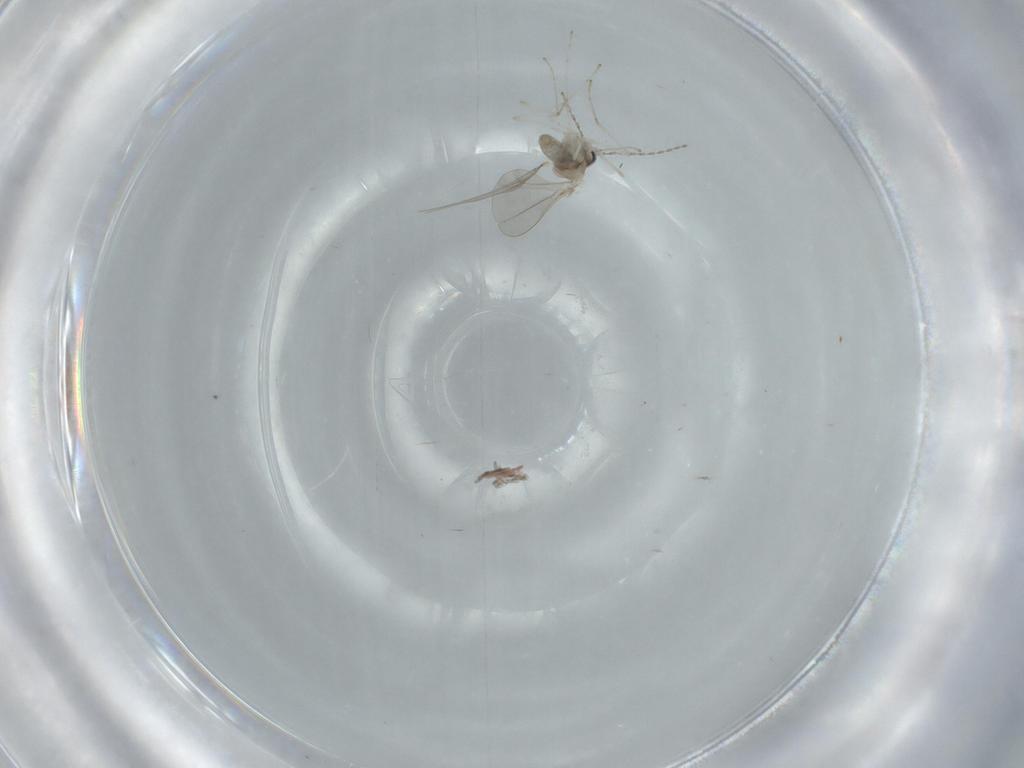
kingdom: Animalia
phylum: Arthropoda
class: Insecta
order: Diptera
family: Cecidomyiidae
